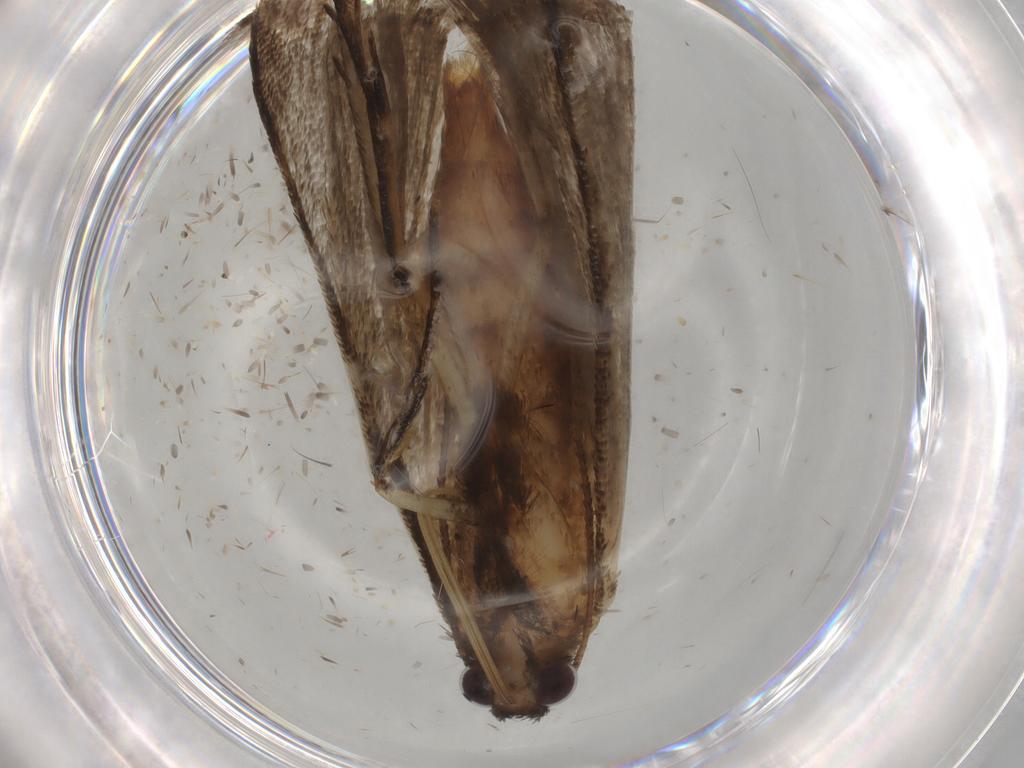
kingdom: Animalia
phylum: Arthropoda
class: Insecta
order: Lepidoptera
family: Erebidae
